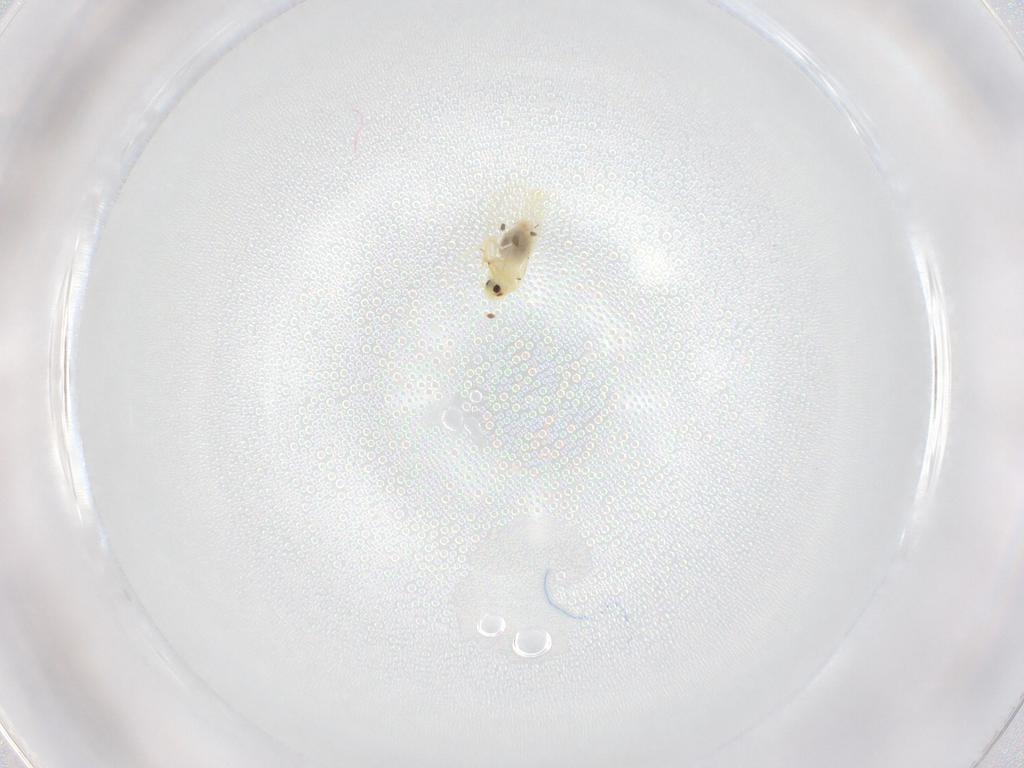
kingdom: Animalia
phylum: Arthropoda
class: Insecta
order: Hemiptera
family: Aleyrodidae
